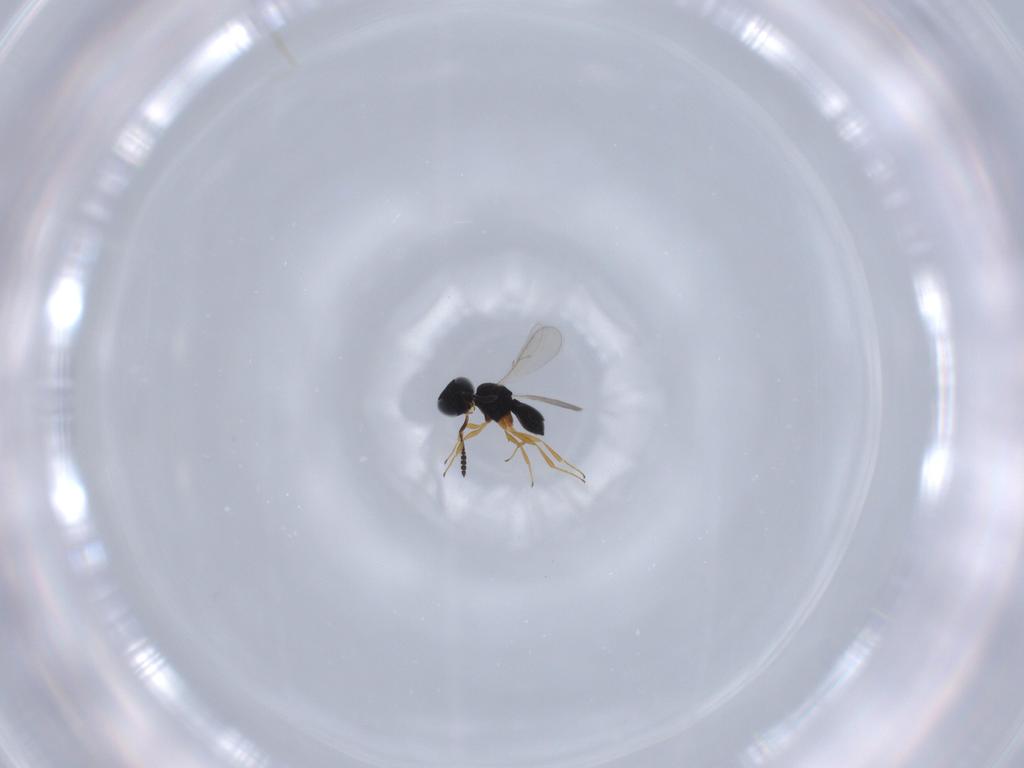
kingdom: Animalia
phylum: Arthropoda
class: Insecta
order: Hymenoptera
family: Scelionidae
